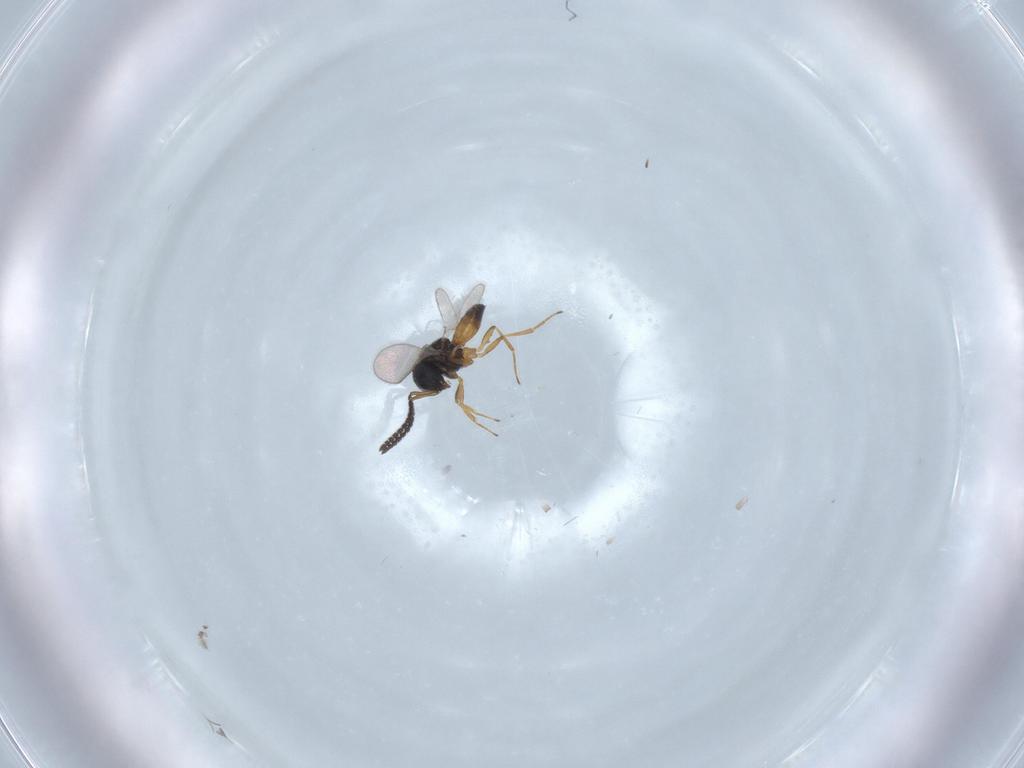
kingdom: Animalia
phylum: Arthropoda
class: Insecta
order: Hymenoptera
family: Scelionidae
